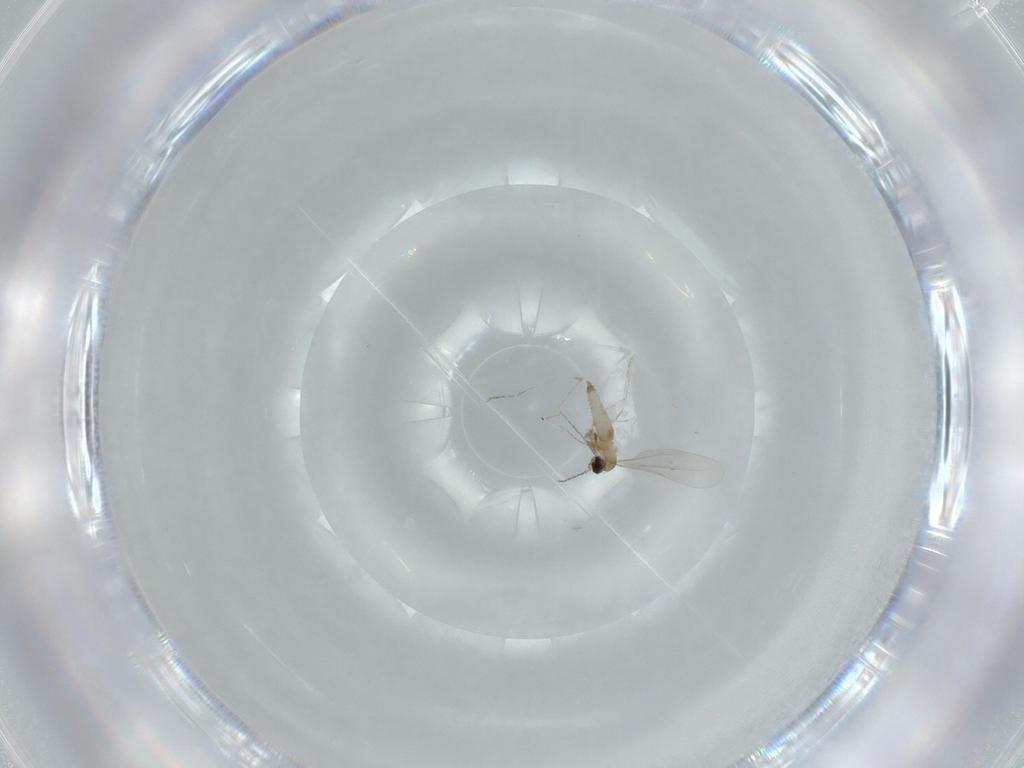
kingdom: Animalia
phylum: Arthropoda
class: Insecta
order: Diptera
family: Cecidomyiidae
